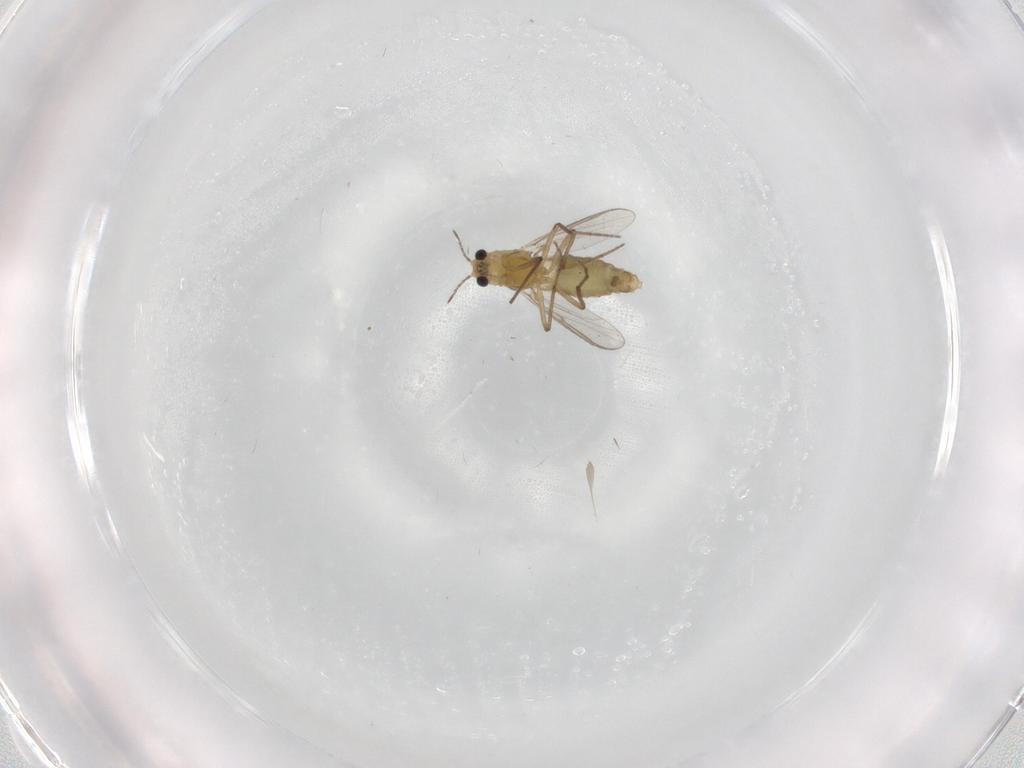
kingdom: Animalia
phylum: Arthropoda
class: Insecta
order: Diptera
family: Chironomidae
